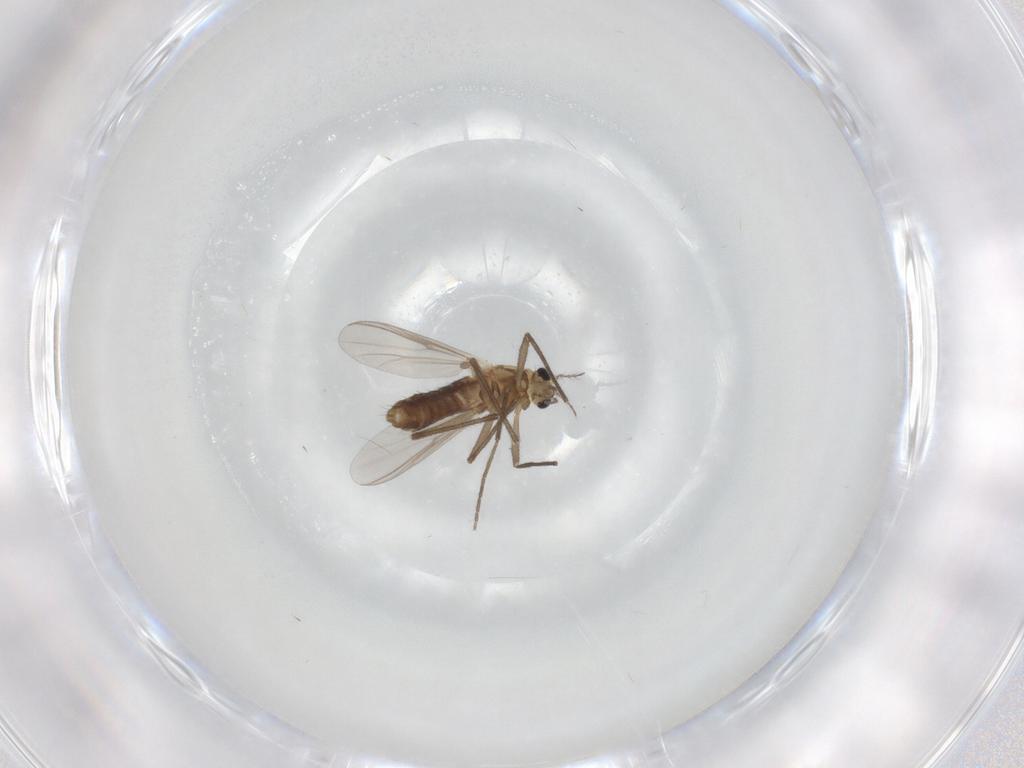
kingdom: Animalia
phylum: Arthropoda
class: Insecta
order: Diptera
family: Chironomidae
